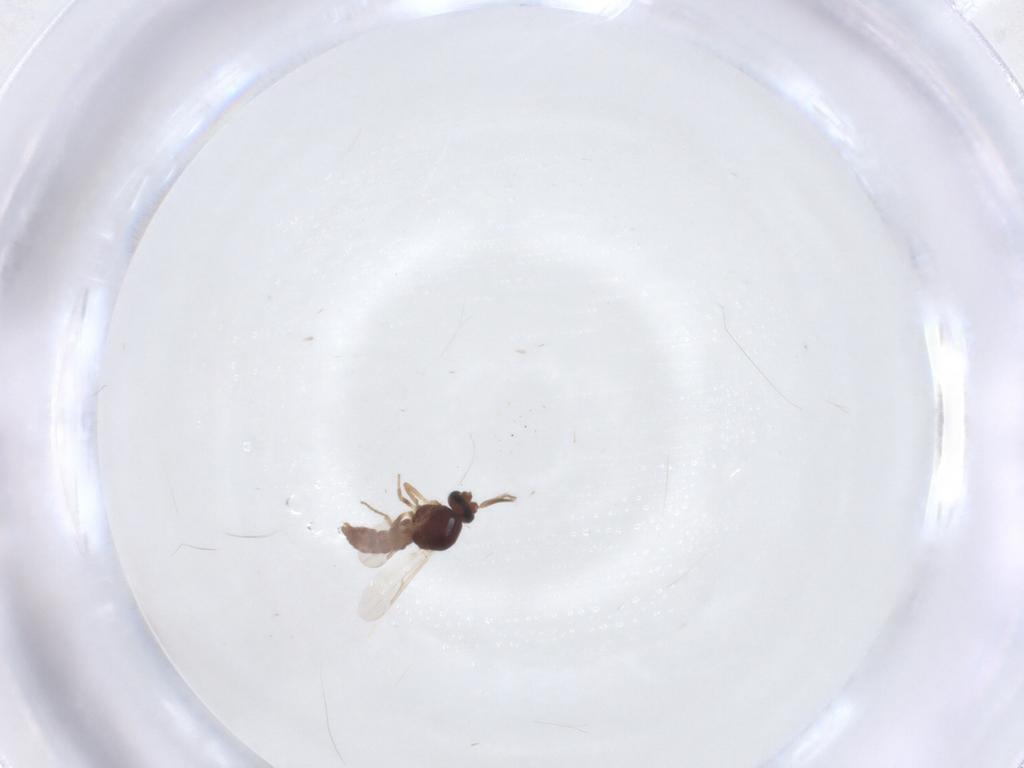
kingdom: Animalia
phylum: Arthropoda
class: Insecta
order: Diptera
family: Ceratopogonidae
